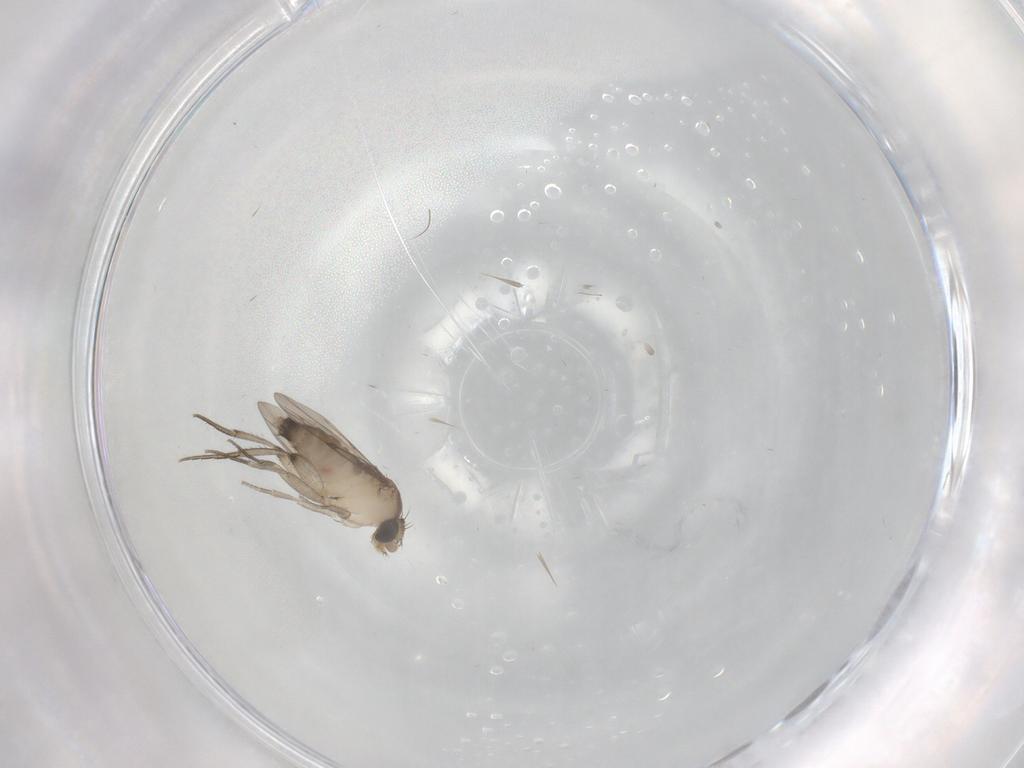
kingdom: Animalia
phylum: Arthropoda
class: Insecta
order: Diptera
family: Phoridae
